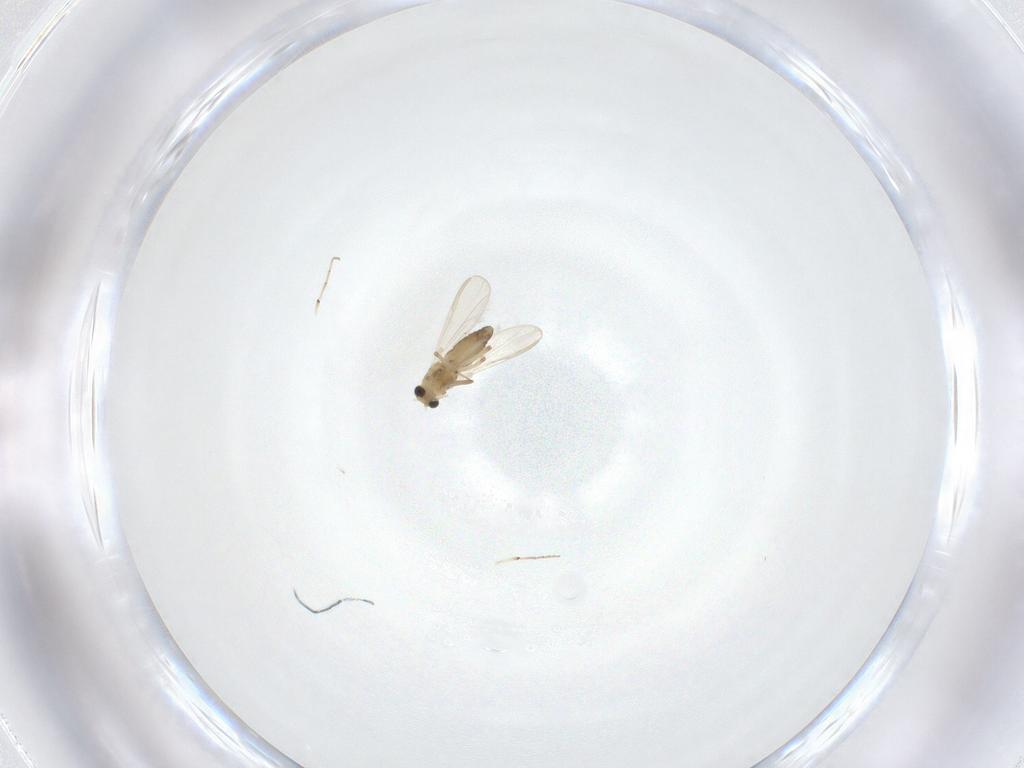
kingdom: Animalia
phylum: Arthropoda
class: Insecta
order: Diptera
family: Chironomidae
